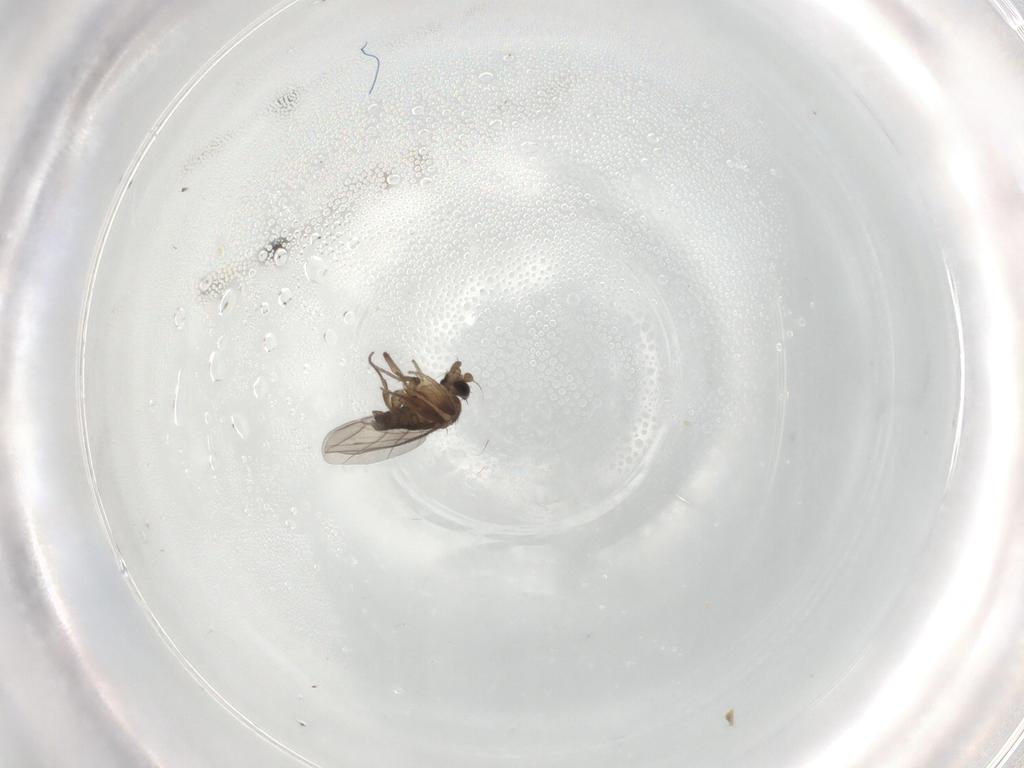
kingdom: Animalia
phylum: Arthropoda
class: Insecta
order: Diptera
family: Phoridae
